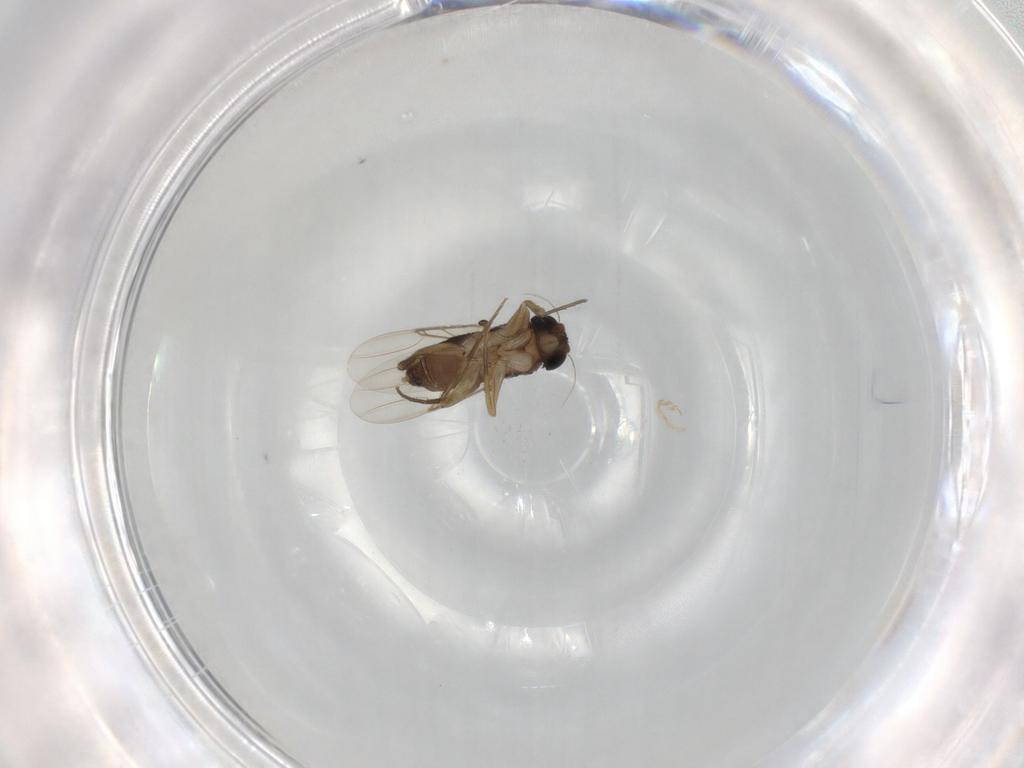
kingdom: Animalia
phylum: Arthropoda
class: Insecta
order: Diptera
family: Phoridae
